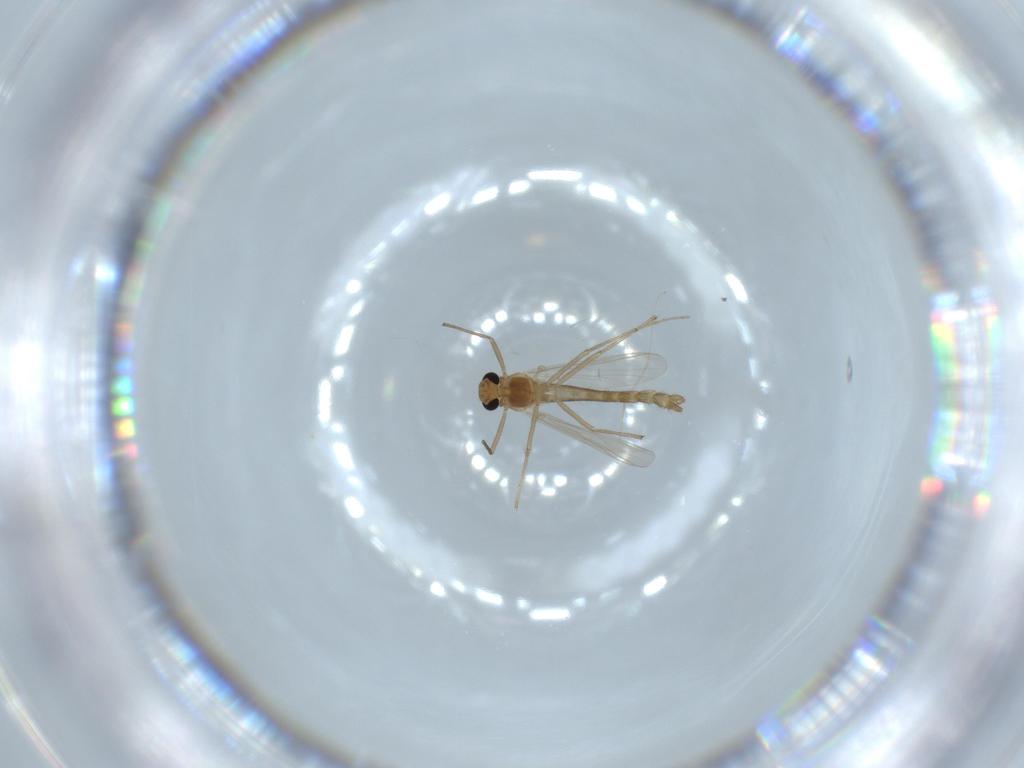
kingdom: Animalia
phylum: Arthropoda
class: Insecta
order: Diptera
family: Chironomidae
